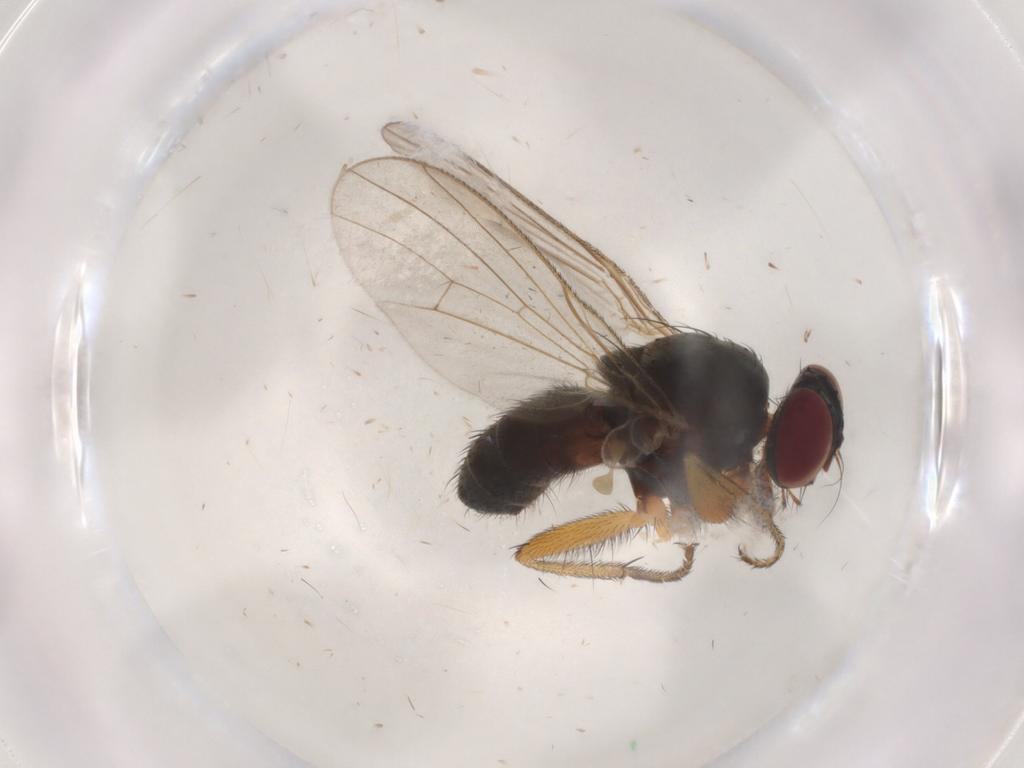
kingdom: Animalia
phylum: Arthropoda
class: Insecta
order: Diptera
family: Muscidae
